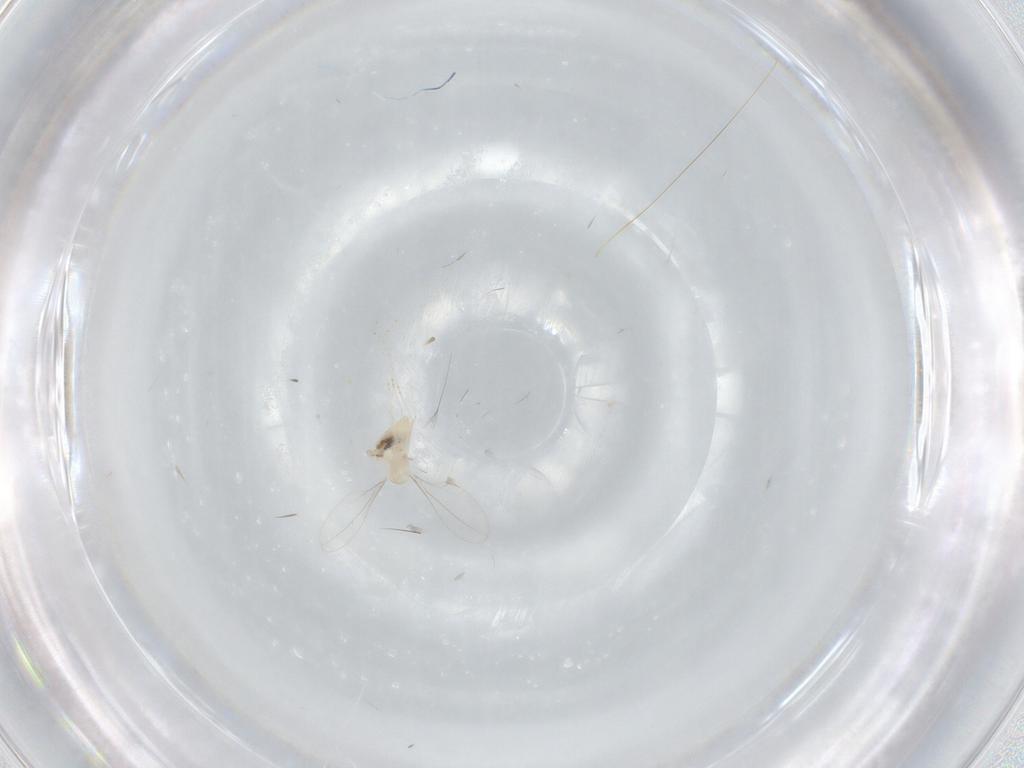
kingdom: Animalia
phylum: Arthropoda
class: Insecta
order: Diptera
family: Cecidomyiidae
